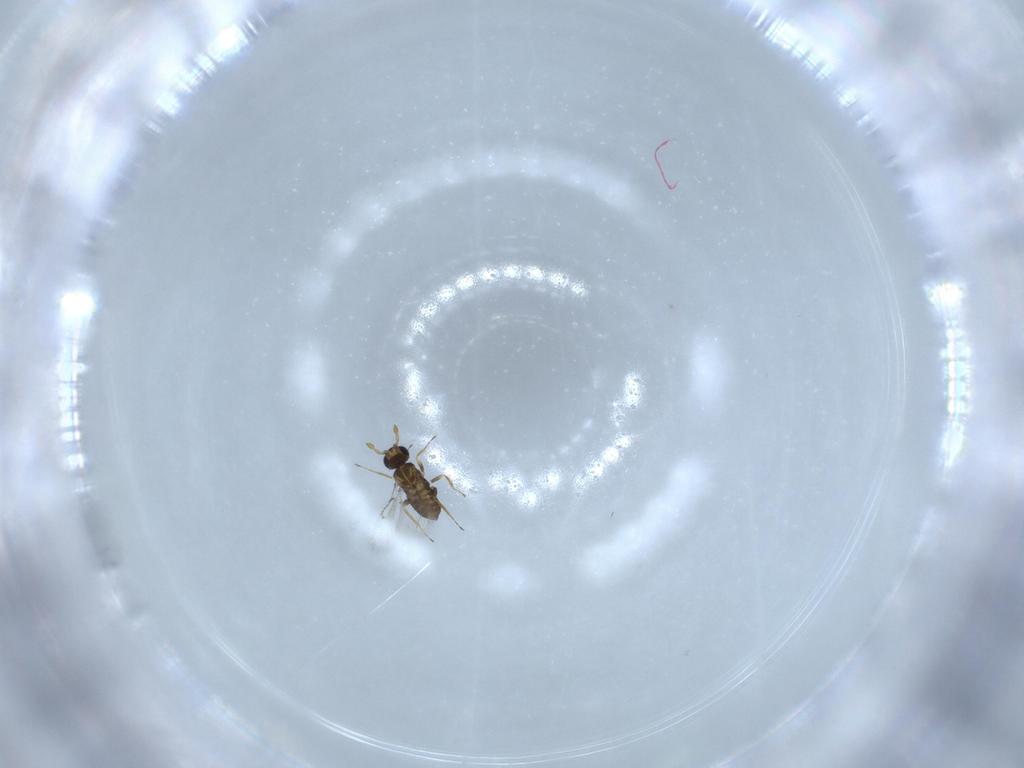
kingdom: Animalia
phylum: Arthropoda
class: Insecta
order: Hymenoptera
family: Trichogrammatidae
